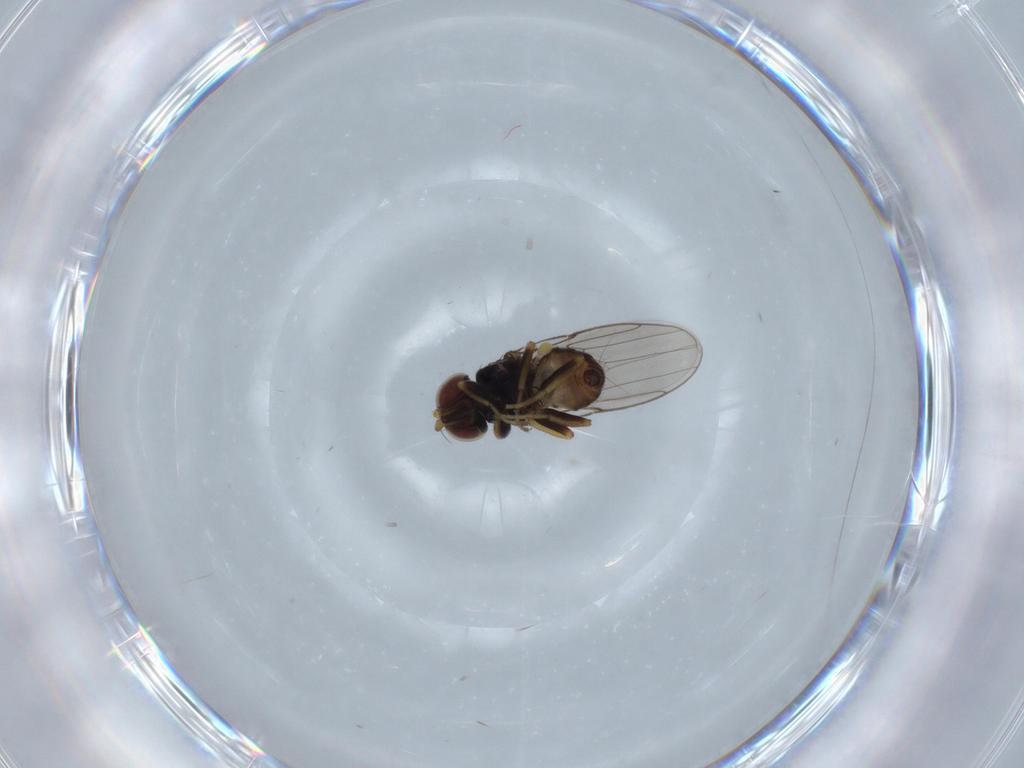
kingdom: Animalia
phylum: Arthropoda
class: Insecta
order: Diptera
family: Chloropidae
